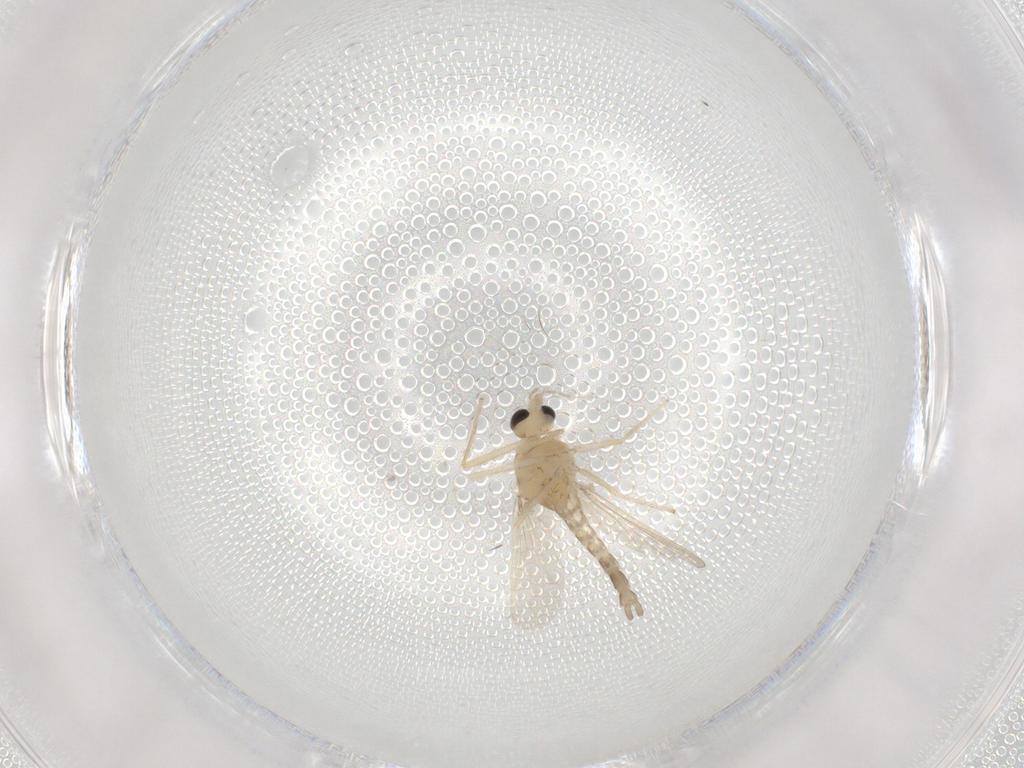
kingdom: Animalia
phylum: Arthropoda
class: Insecta
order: Diptera
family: Chironomidae
